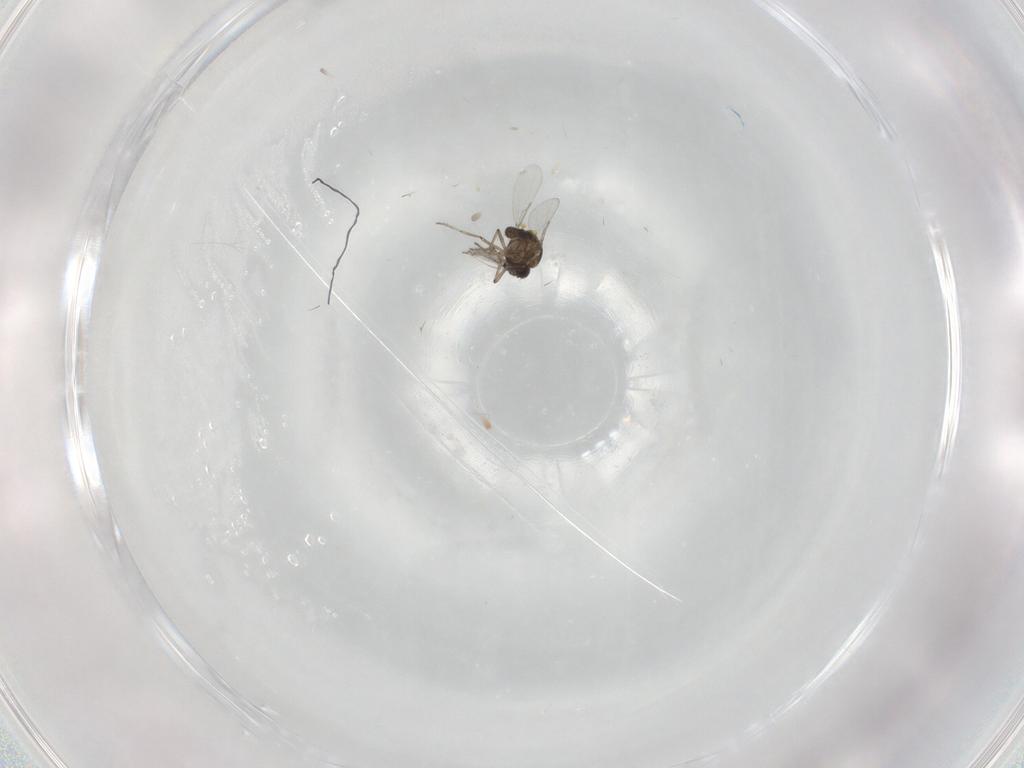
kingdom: Animalia
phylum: Arthropoda
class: Insecta
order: Diptera
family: Ceratopogonidae
